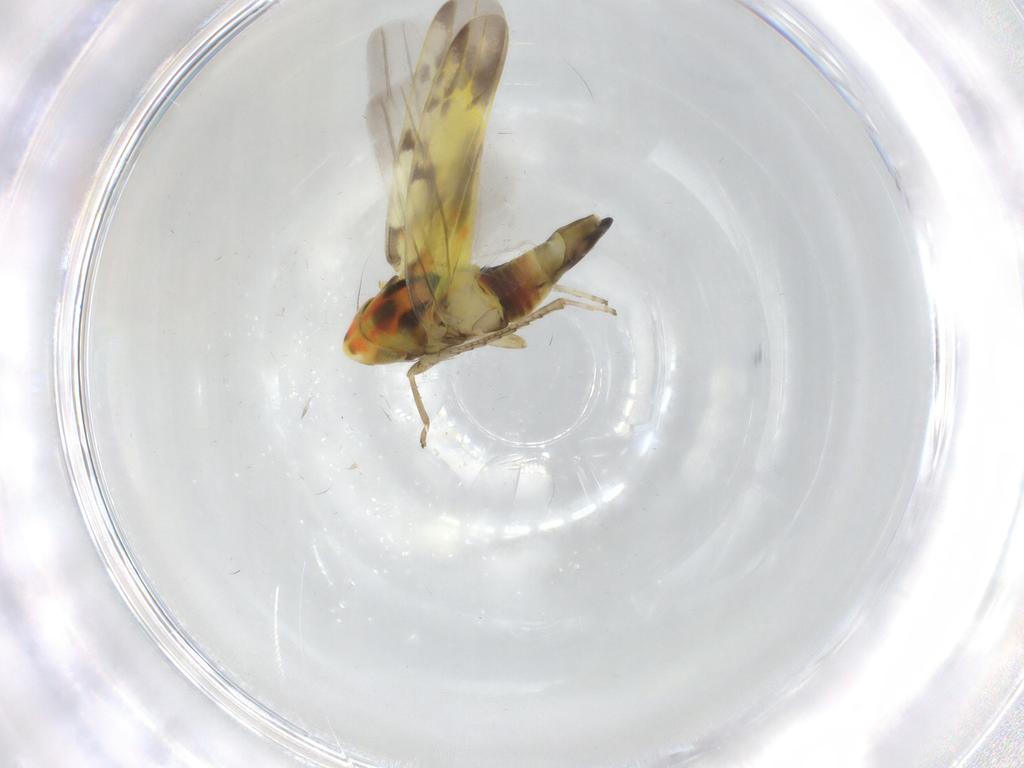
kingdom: Animalia
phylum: Arthropoda
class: Insecta
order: Hemiptera
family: Cicadellidae
